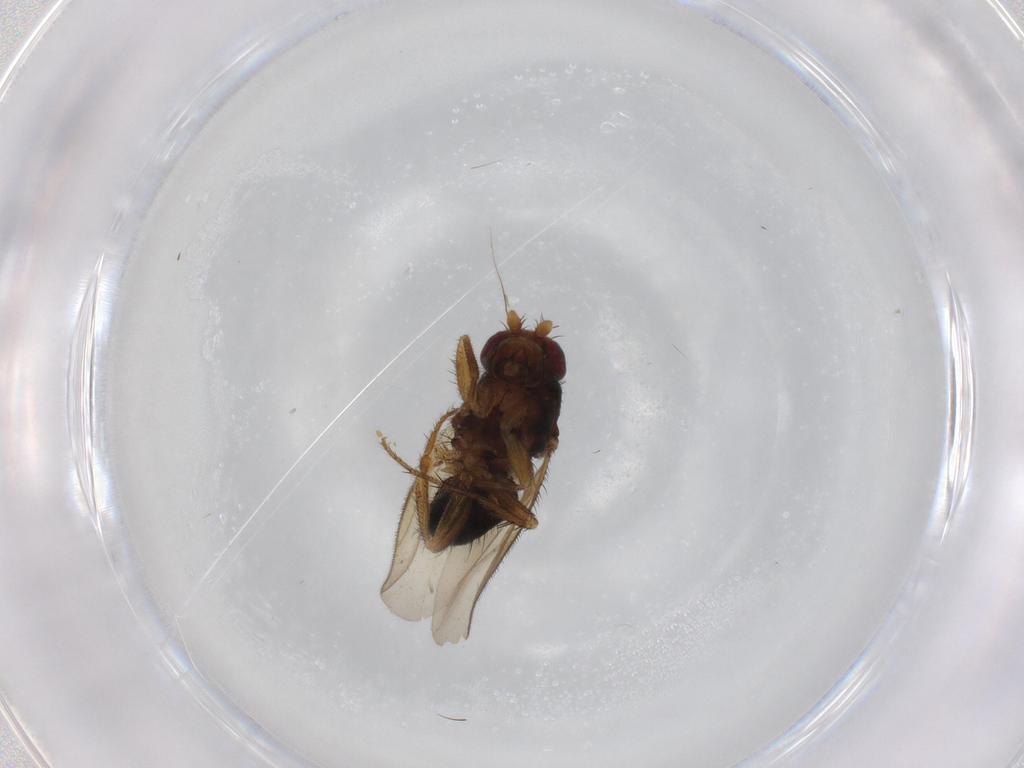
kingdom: Animalia
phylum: Arthropoda
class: Insecta
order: Diptera
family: Sphaeroceridae
